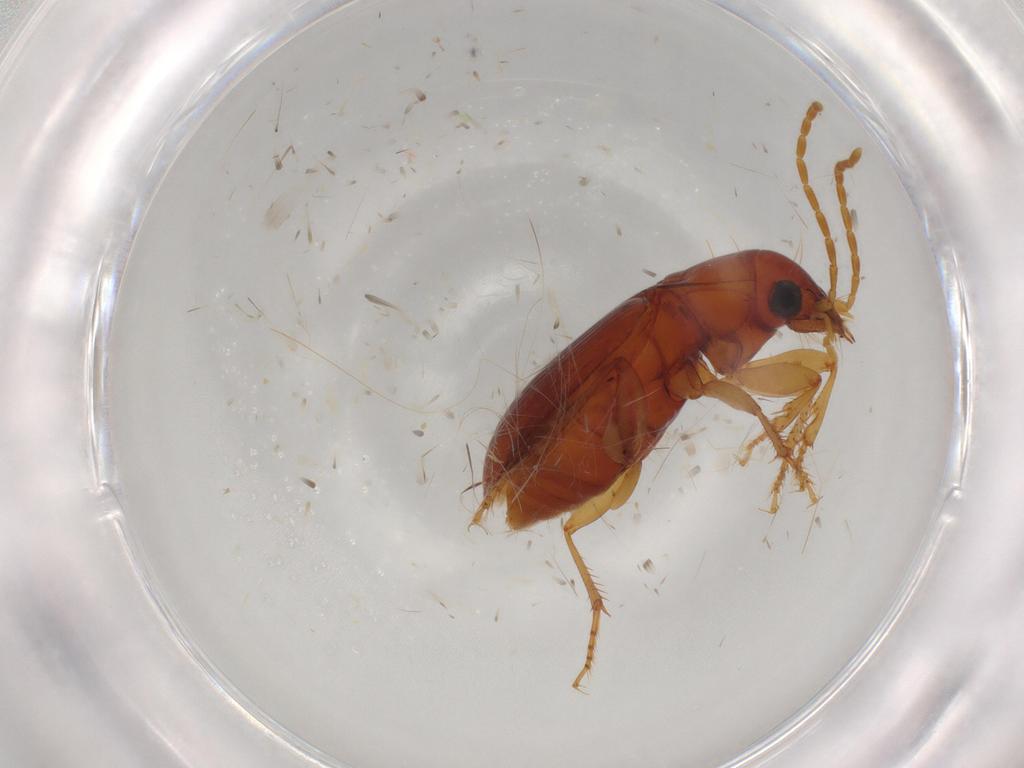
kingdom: Animalia
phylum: Arthropoda
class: Insecta
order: Coleoptera
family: Carabidae
